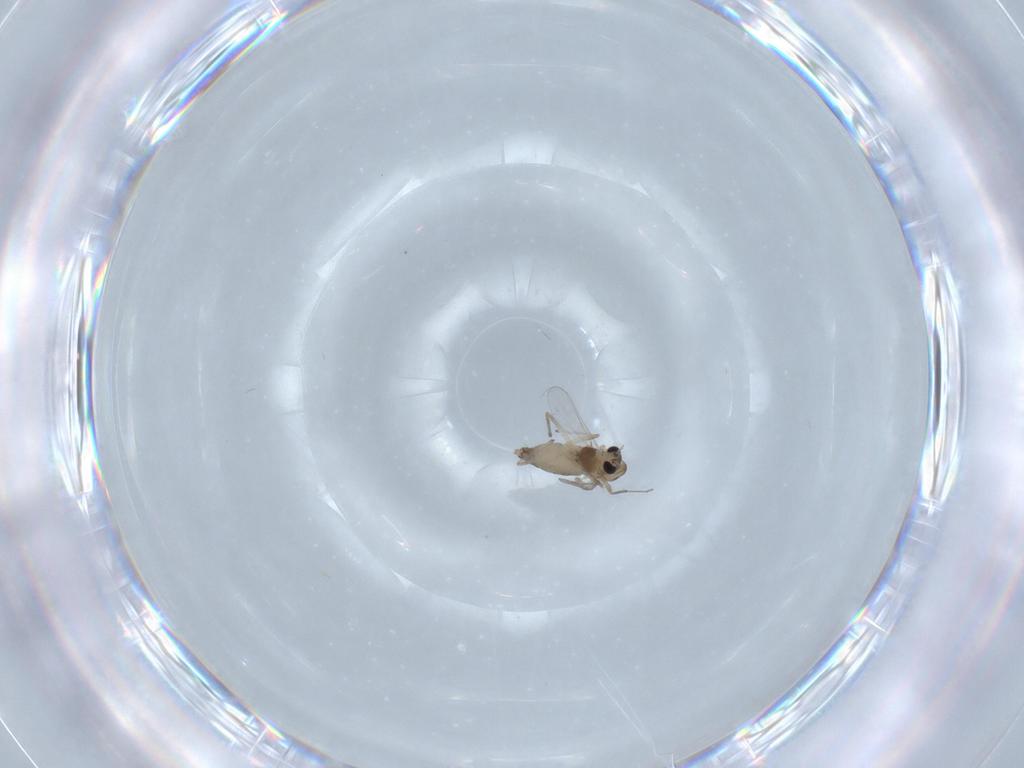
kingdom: Animalia
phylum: Arthropoda
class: Insecta
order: Diptera
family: Chironomidae
